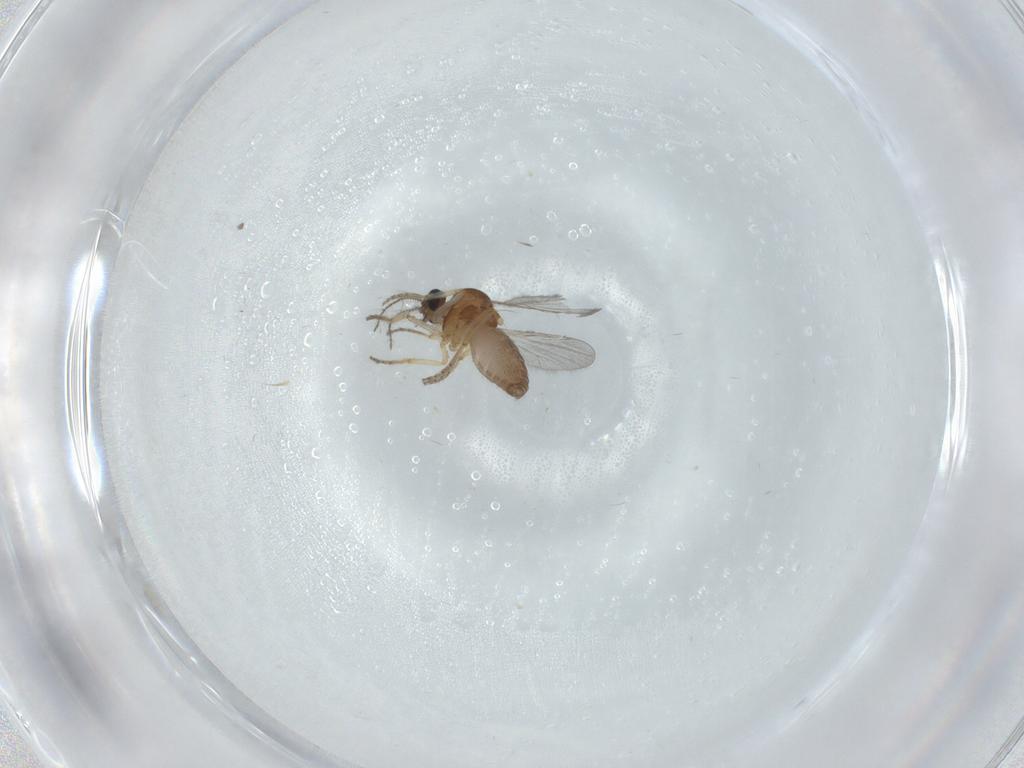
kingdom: Animalia
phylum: Arthropoda
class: Insecta
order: Diptera
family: Ceratopogonidae
